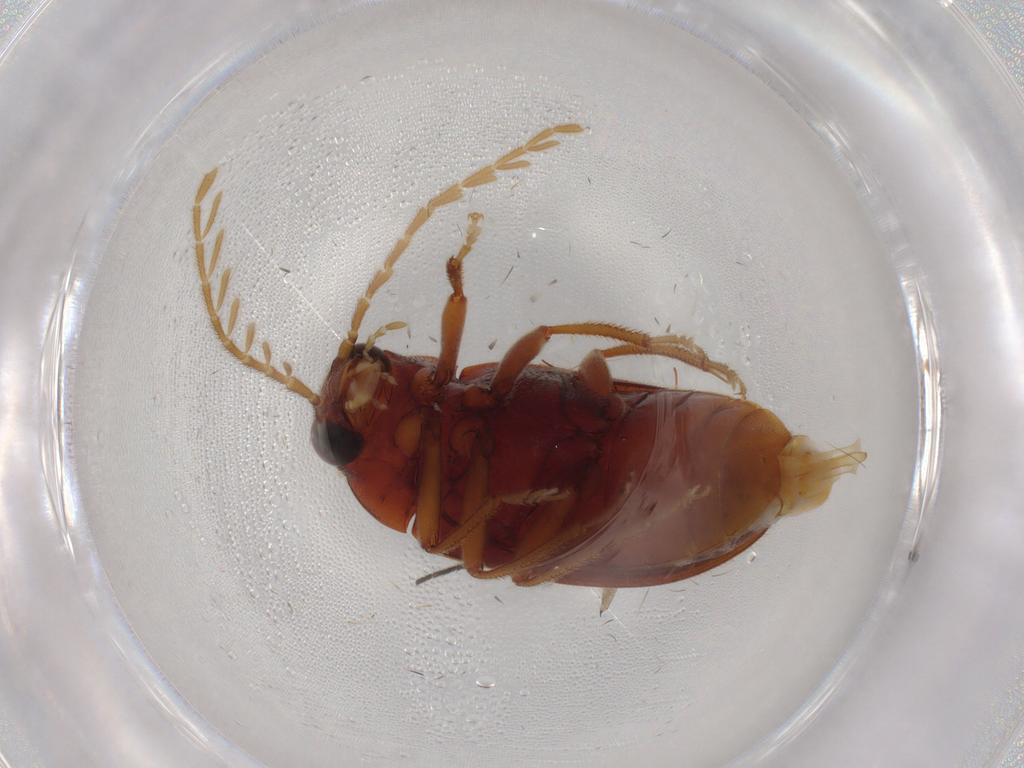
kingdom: Animalia
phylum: Arthropoda
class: Insecta
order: Coleoptera
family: Ptilodactylidae
